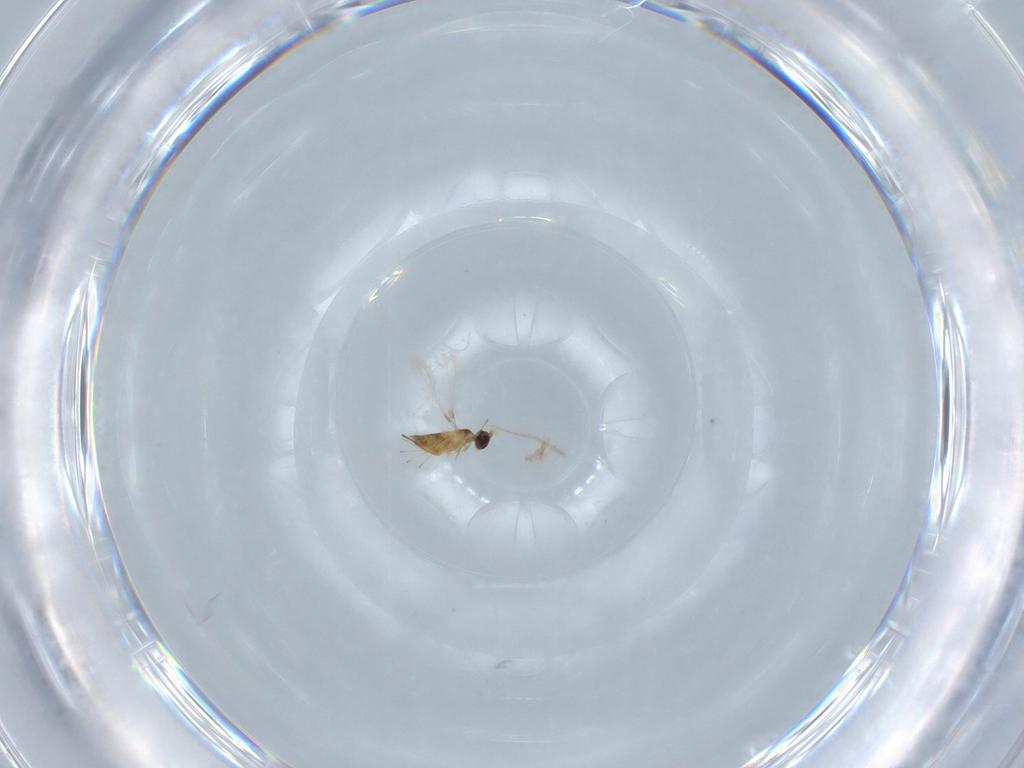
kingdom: Animalia
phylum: Arthropoda
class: Insecta
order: Hymenoptera
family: Mymaridae
